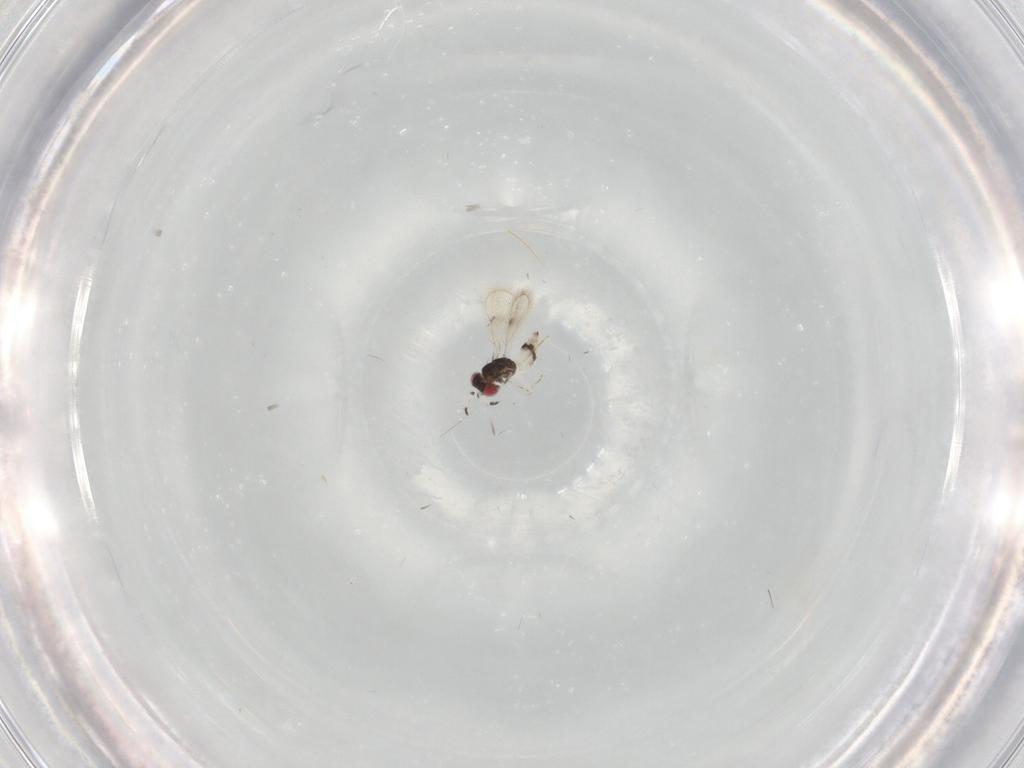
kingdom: Animalia
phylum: Arthropoda
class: Insecta
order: Hymenoptera
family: Eulophidae
